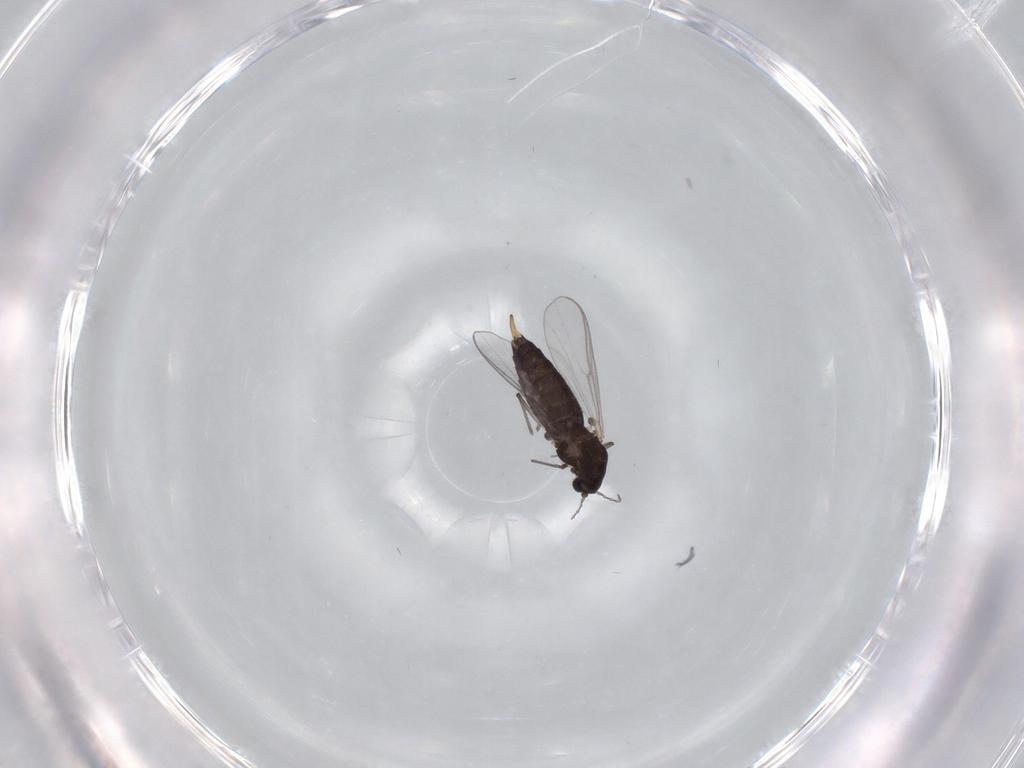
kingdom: Animalia
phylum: Arthropoda
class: Insecta
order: Diptera
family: Chironomidae
